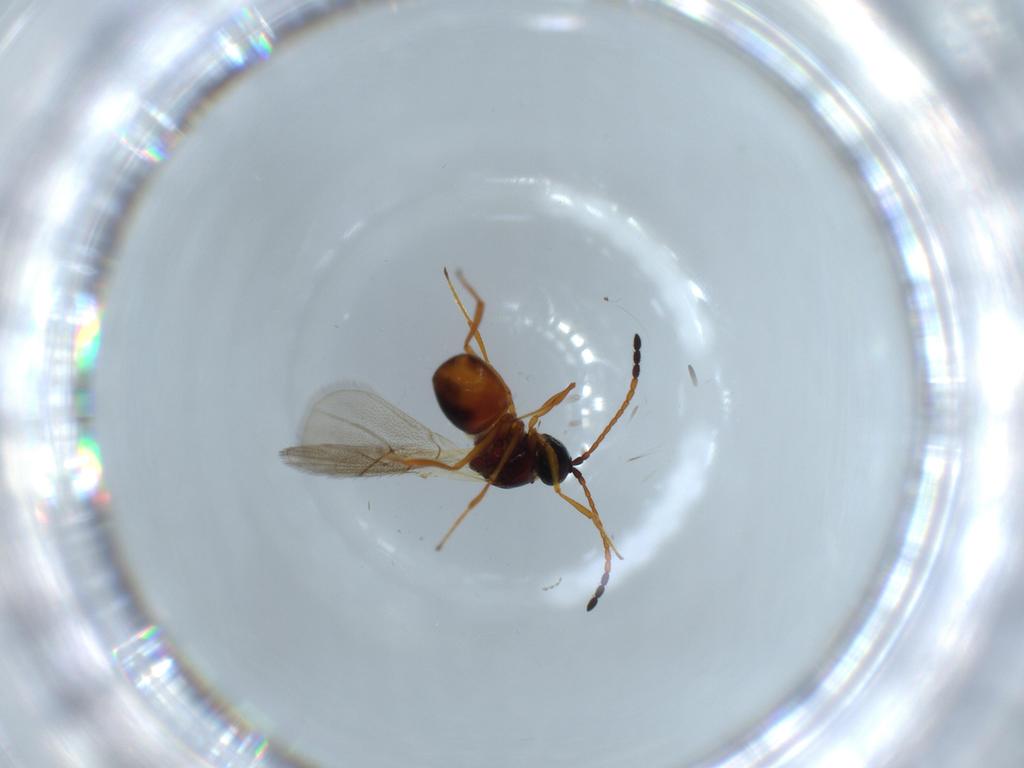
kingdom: Animalia
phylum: Arthropoda
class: Insecta
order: Hymenoptera
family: Figitidae
